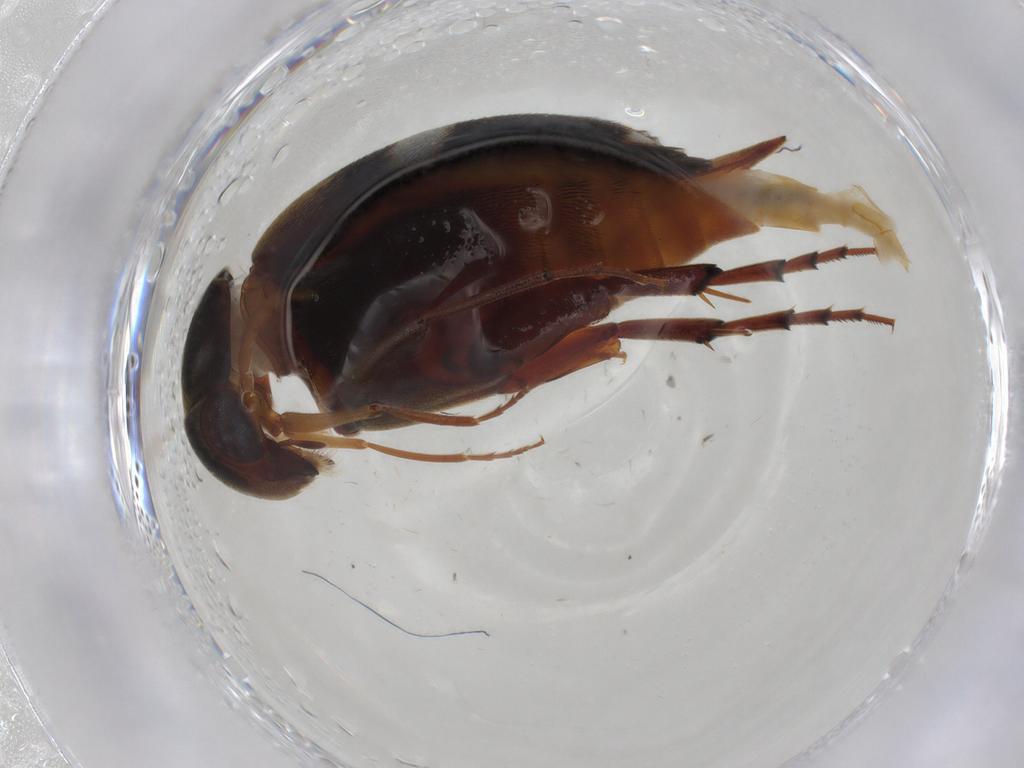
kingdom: Animalia
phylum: Arthropoda
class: Insecta
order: Coleoptera
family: Mordellidae
